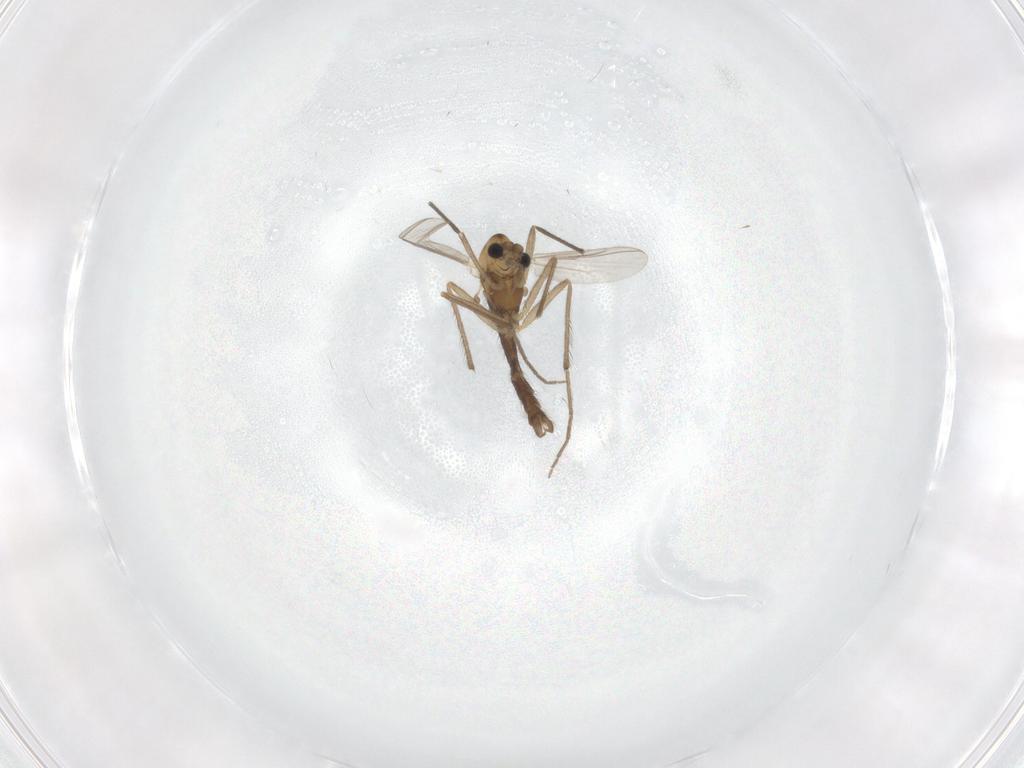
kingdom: Animalia
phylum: Arthropoda
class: Insecta
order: Diptera
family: Chironomidae
